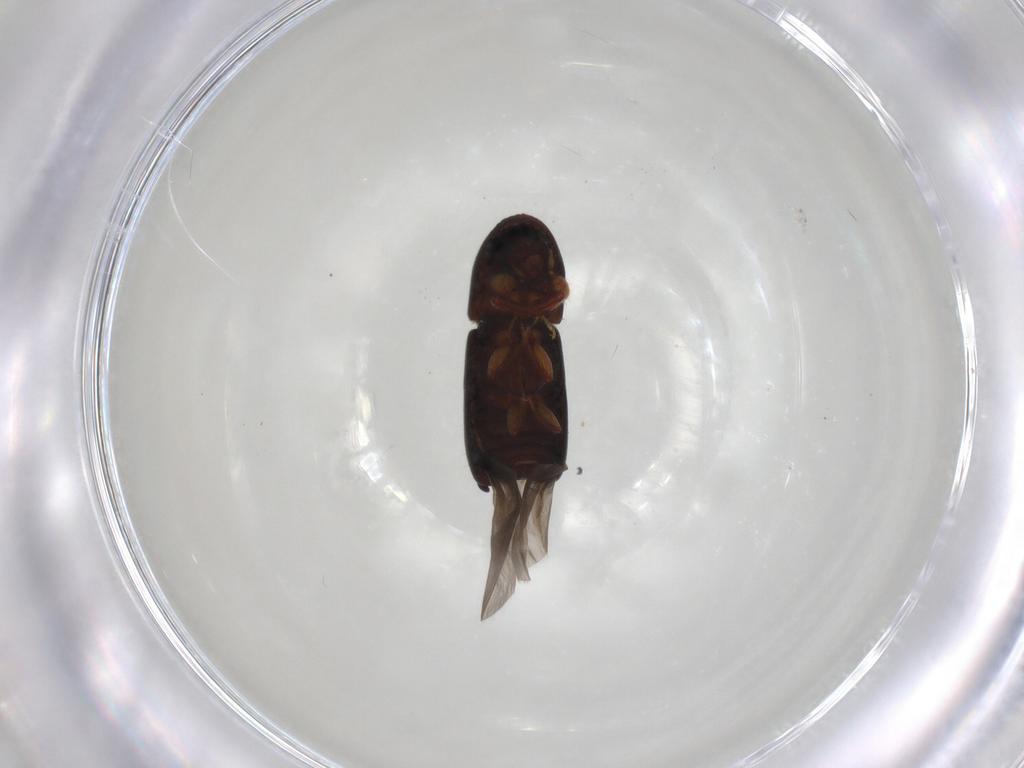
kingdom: Animalia
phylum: Arthropoda
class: Insecta
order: Coleoptera
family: Curculionidae
